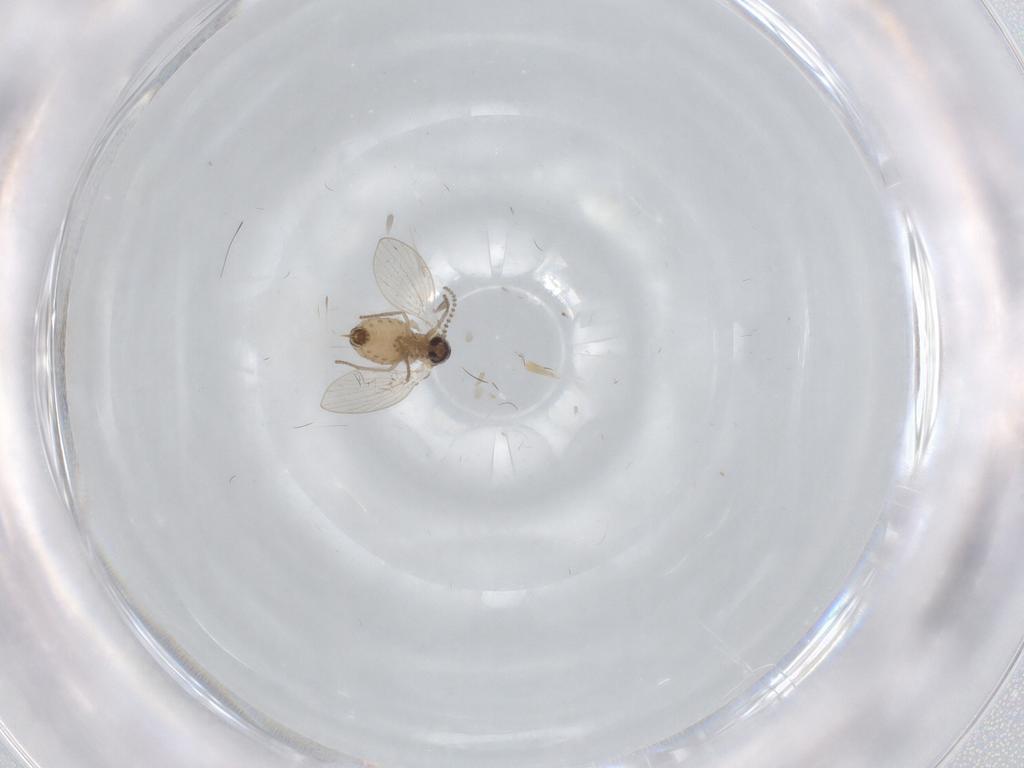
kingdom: Animalia
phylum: Arthropoda
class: Insecta
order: Diptera
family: Psychodidae
